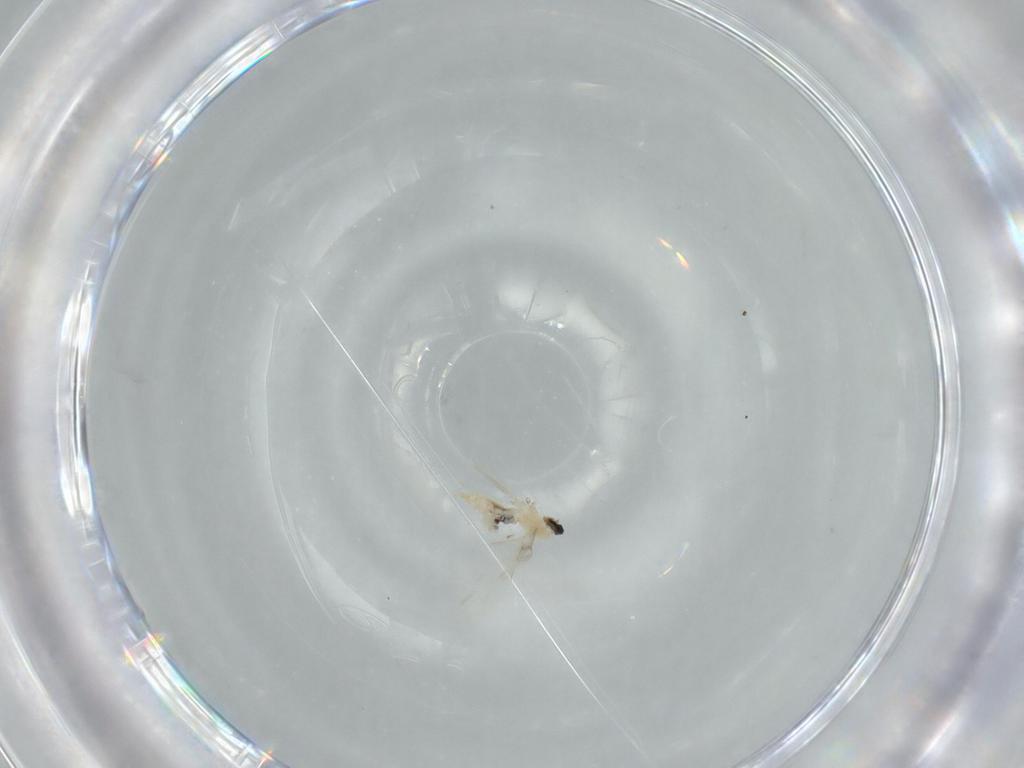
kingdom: Animalia
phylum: Arthropoda
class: Insecta
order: Diptera
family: Cecidomyiidae
